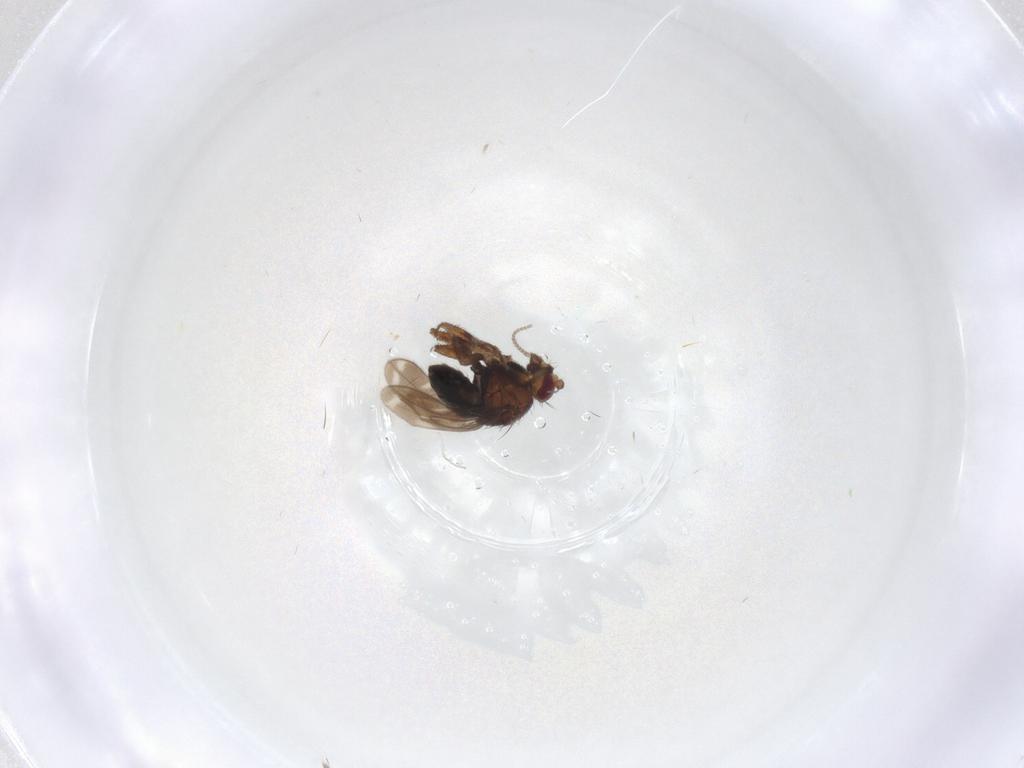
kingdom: Animalia
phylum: Arthropoda
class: Insecta
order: Diptera
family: Sphaeroceridae
